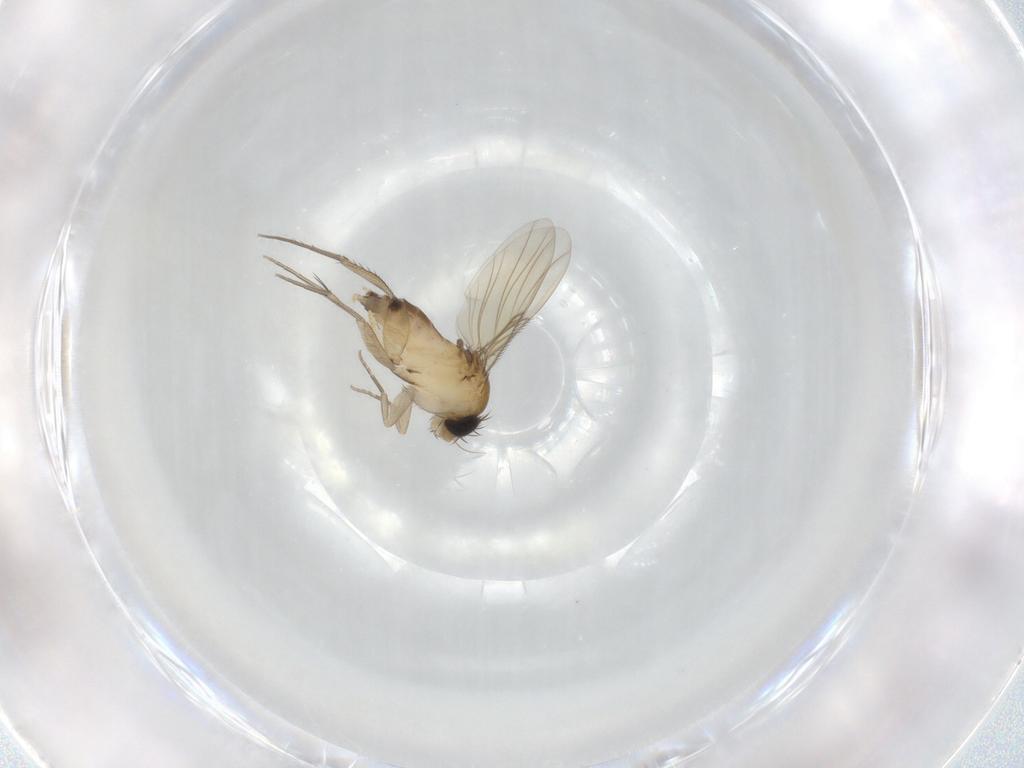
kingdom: Animalia
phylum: Arthropoda
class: Insecta
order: Diptera
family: Phoridae
